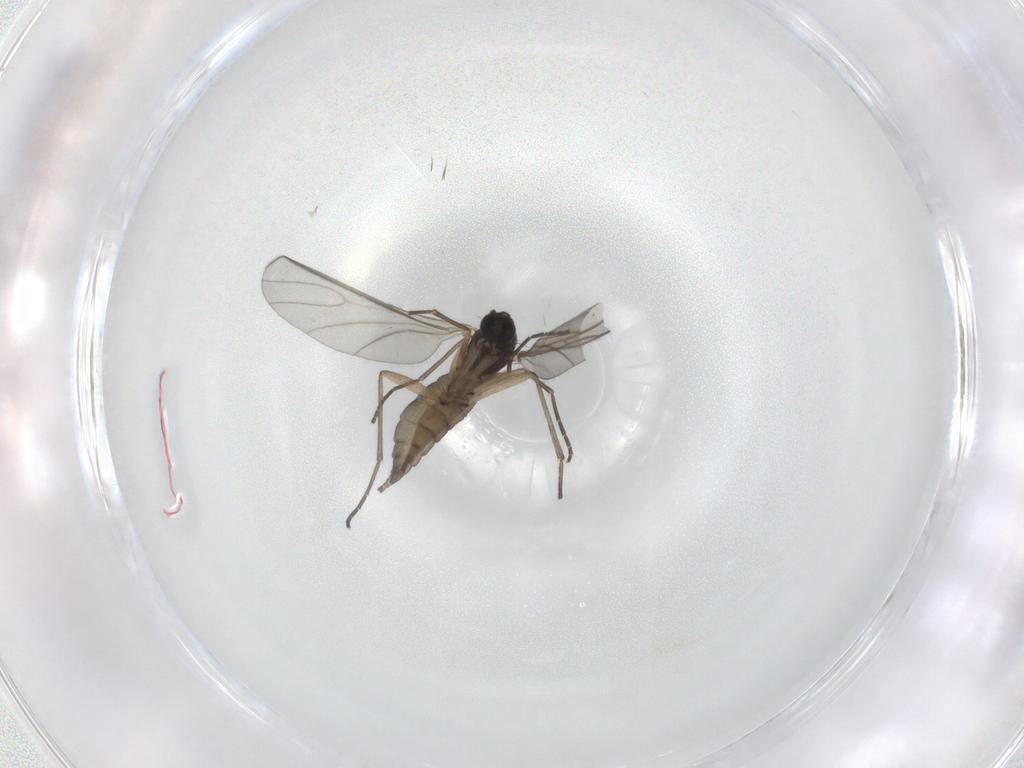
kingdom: Animalia
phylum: Arthropoda
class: Insecta
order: Diptera
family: Sciaridae
